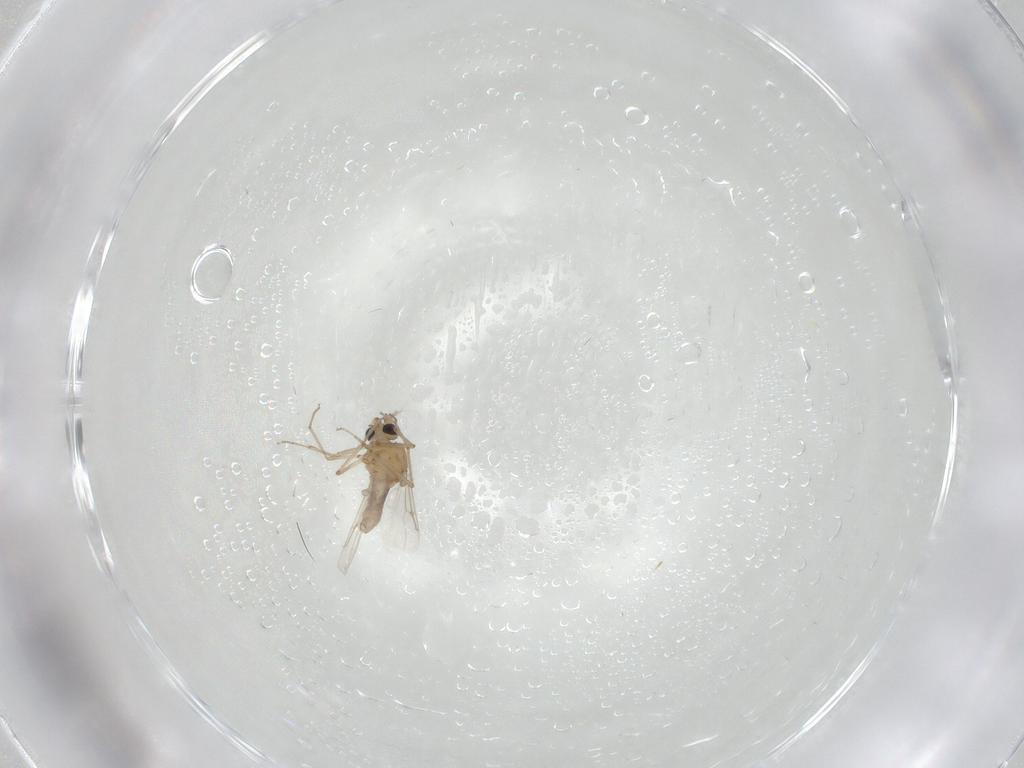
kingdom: Animalia
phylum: Arthropoda
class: Insecta
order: Diptera
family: Ceratopogonidae
